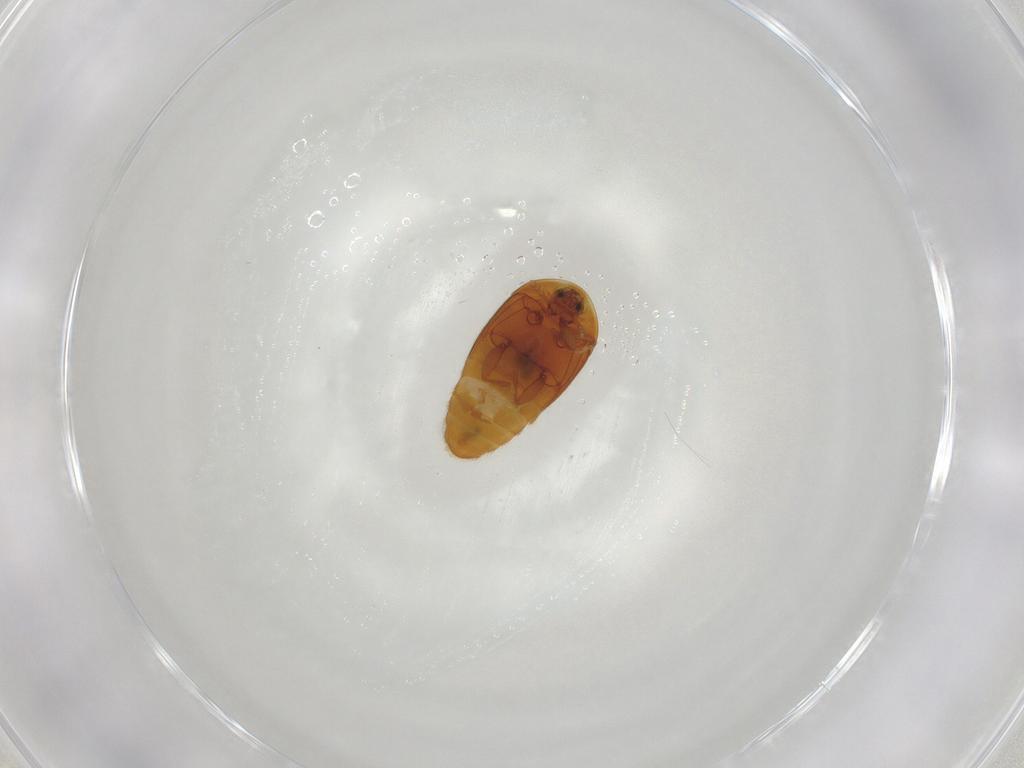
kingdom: Animalia
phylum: Arthropoda
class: Insecta
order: Coleoptera
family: Corylophidae
